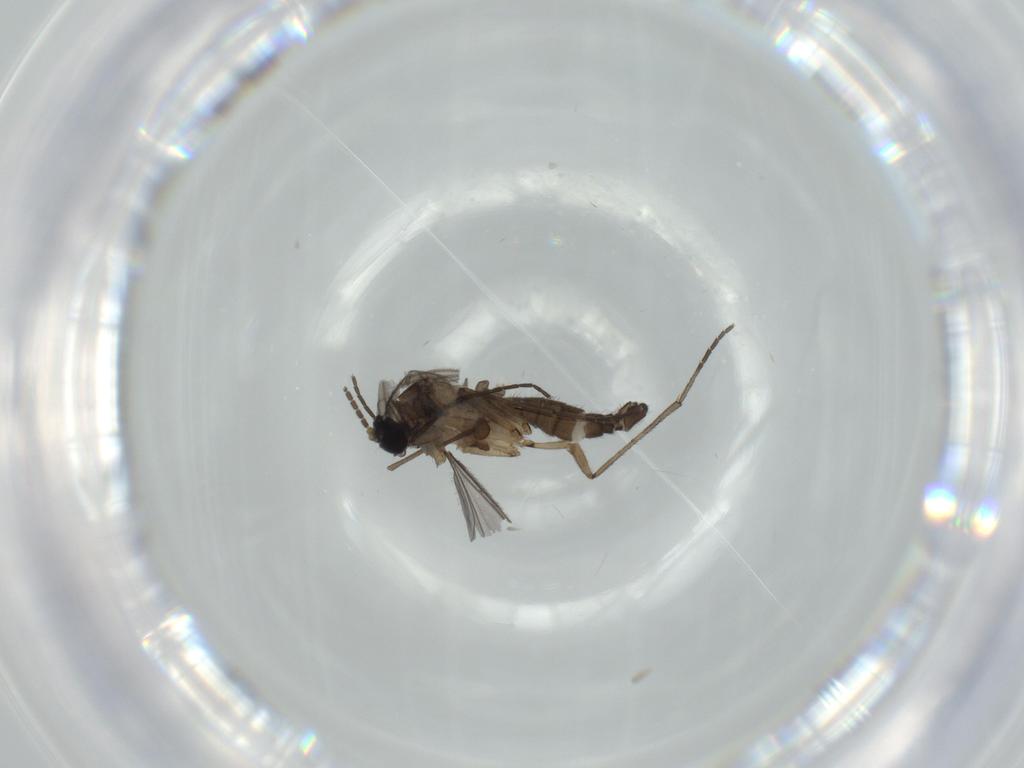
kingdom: Animalia
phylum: Arthropoda
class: Insecta
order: Diptera
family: Sciaridae
